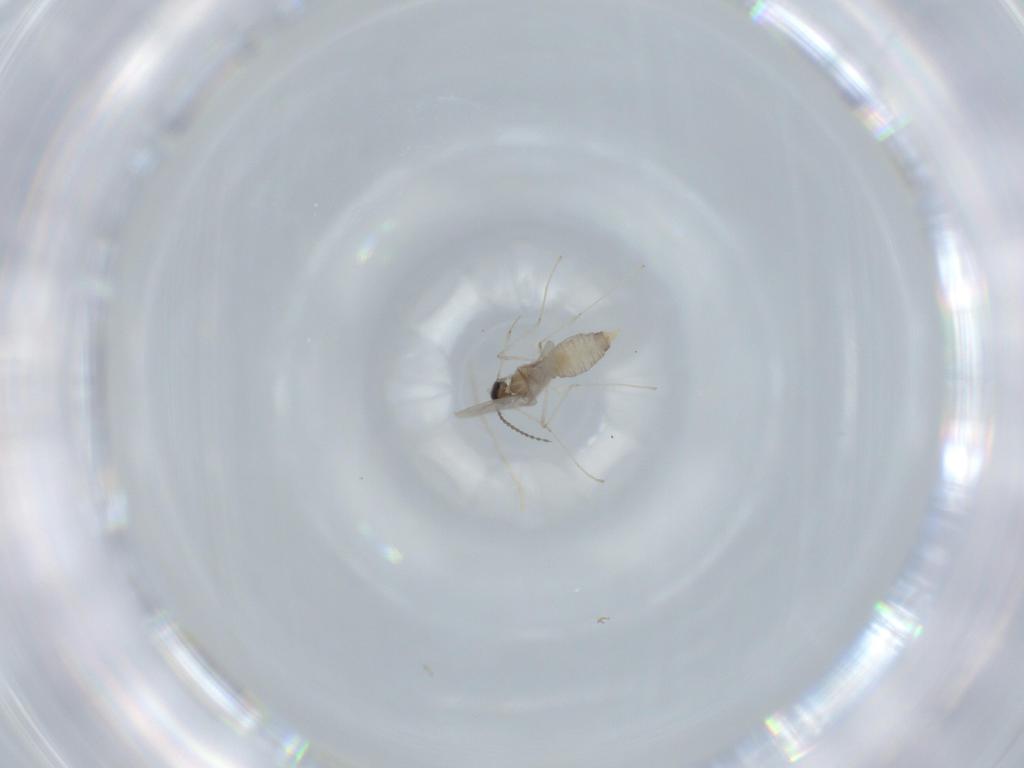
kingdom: Animalia
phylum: Arthropoda
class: Insecta
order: Diptera
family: Cecidomyiidae
